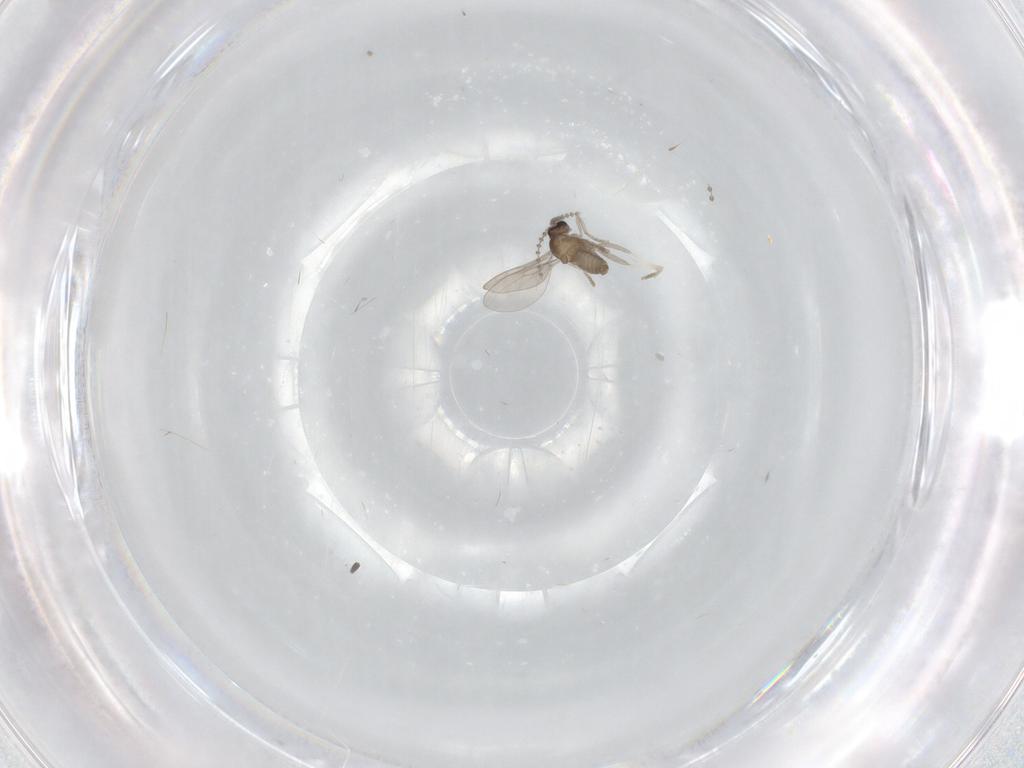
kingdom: Animalia
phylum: Arthropoda
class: Insecta
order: Diptera
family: Cecidomyiidae
